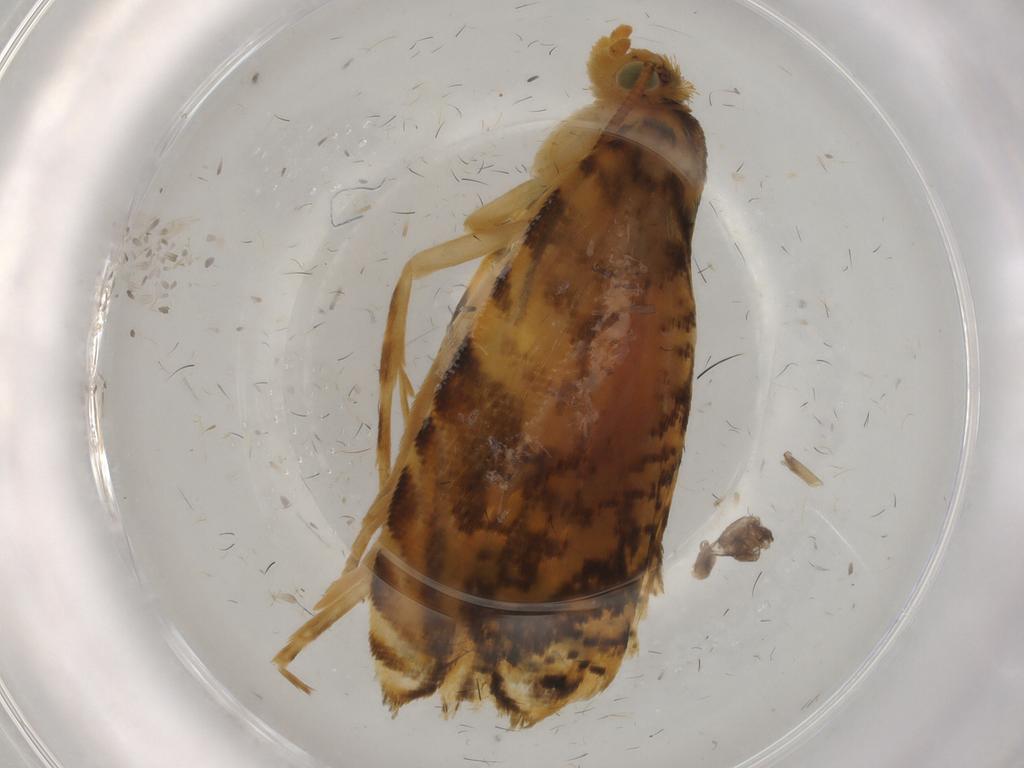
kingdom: Animalia
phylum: Arthropoda
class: Insecta
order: Lepidoptera
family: Tortricidae
